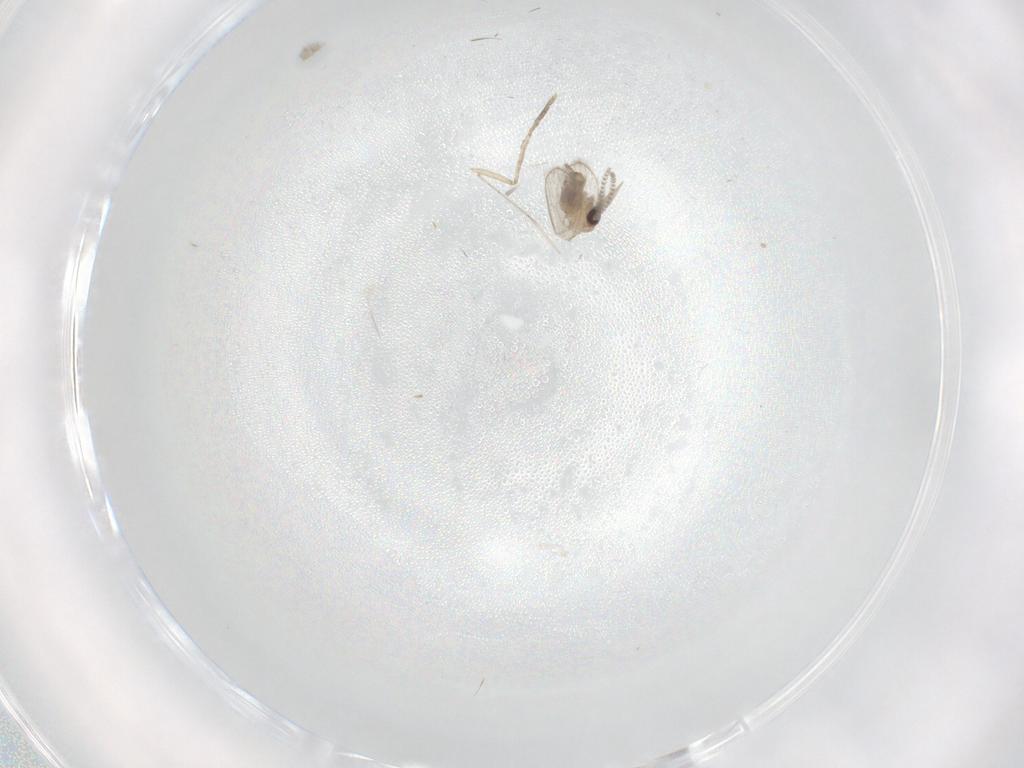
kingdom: Animalia
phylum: Arthropoda
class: Insecta
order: Diptera
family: Psychodidae
